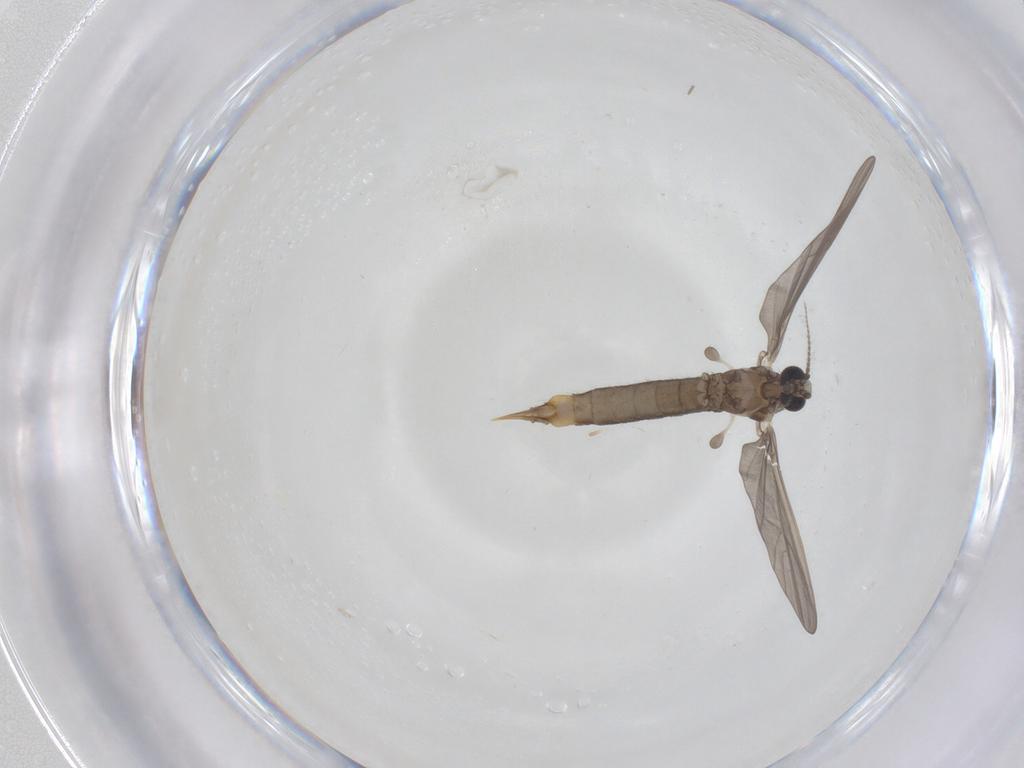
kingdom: Animalia
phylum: Arthropoda
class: Insecta
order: Diptera
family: Limoniidae
